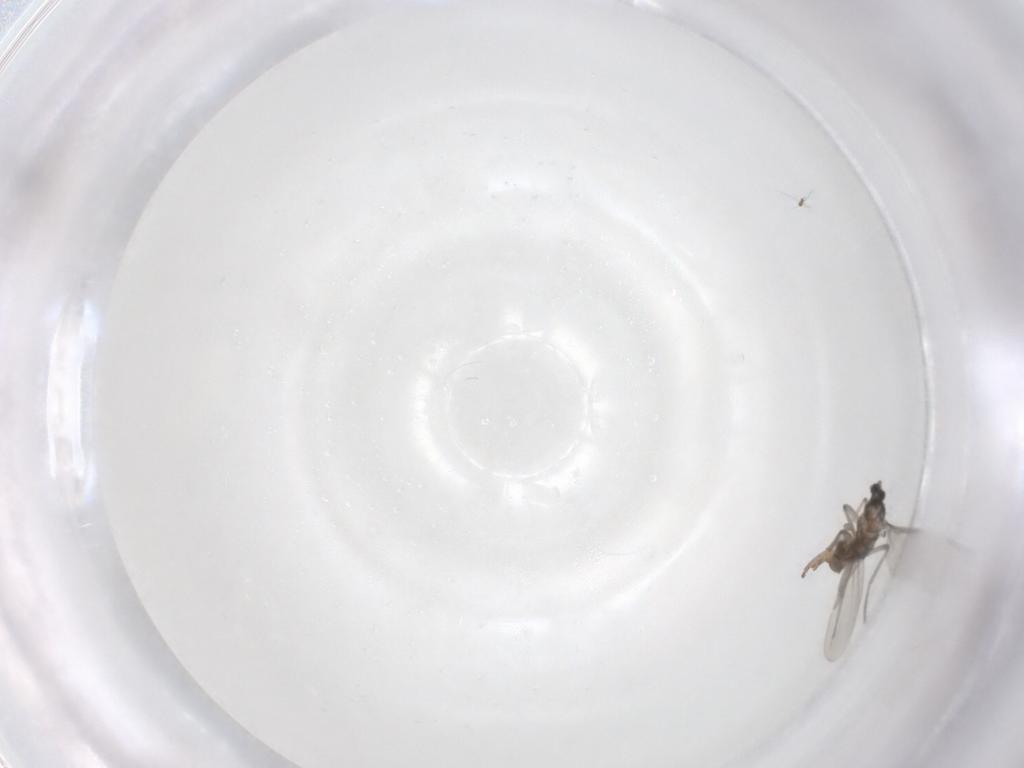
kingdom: Animalia
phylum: Arthropoda
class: Insecta
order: Diptera
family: Cecidomyiidae
